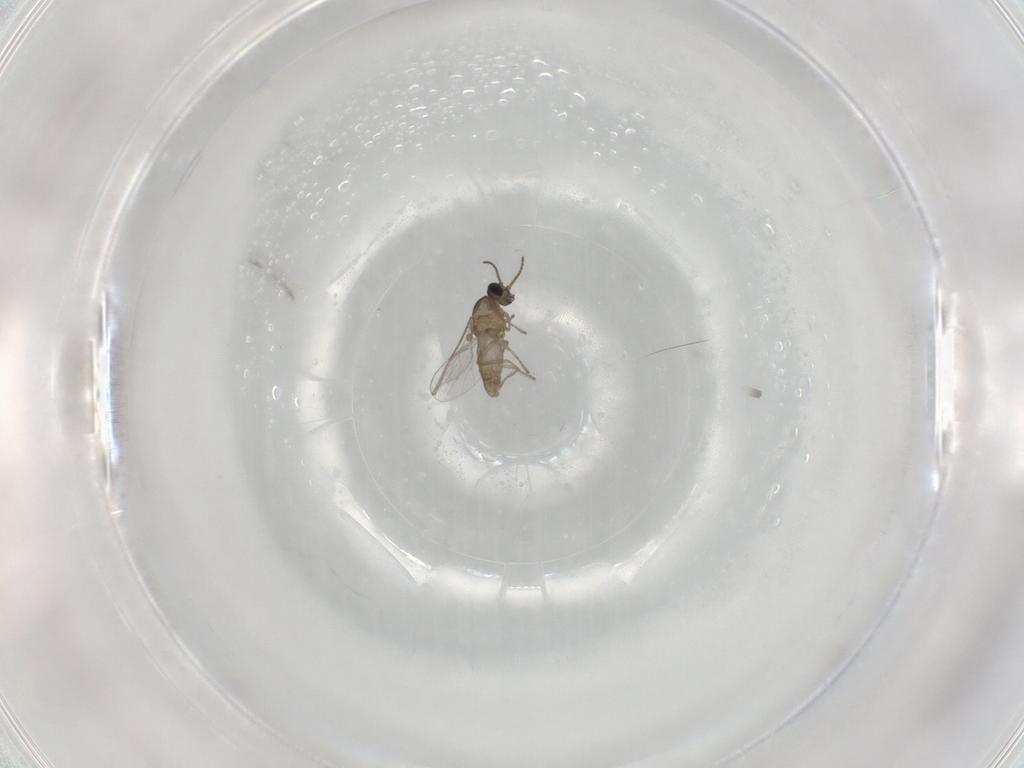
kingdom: Animalia
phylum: Arthropoda
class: Insecta
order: Diptera
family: Ceratopogonidae
